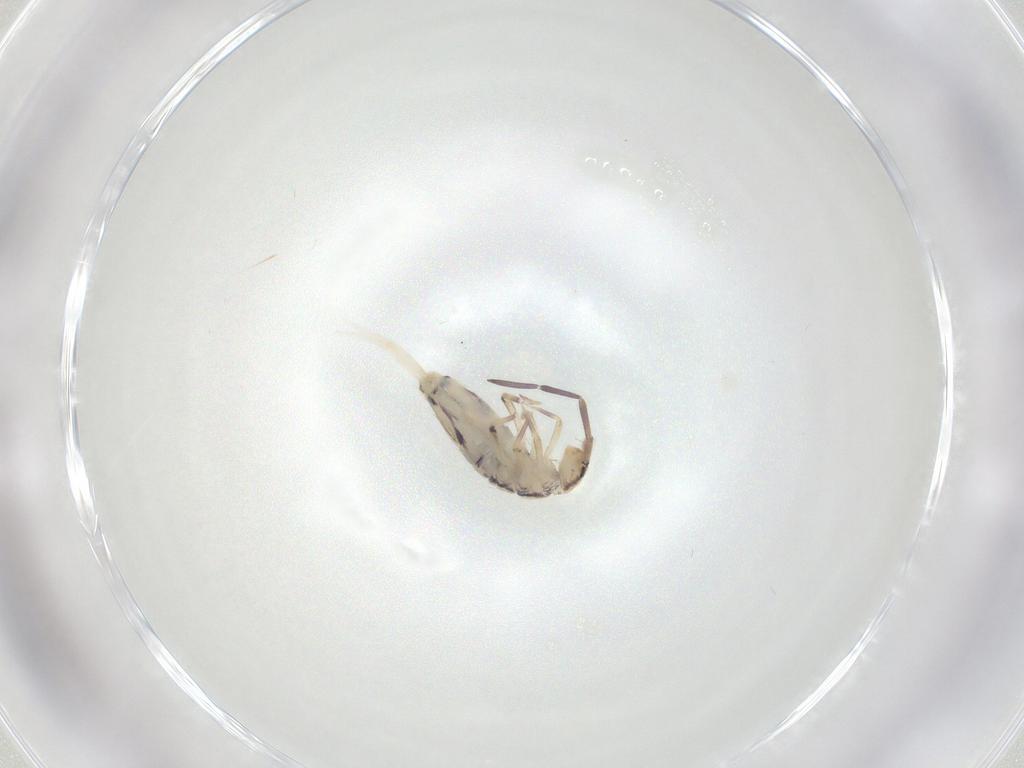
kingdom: Animalia
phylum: Arthropoda
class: Collembola
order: Entomobryomorpha
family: Entomobryidae
